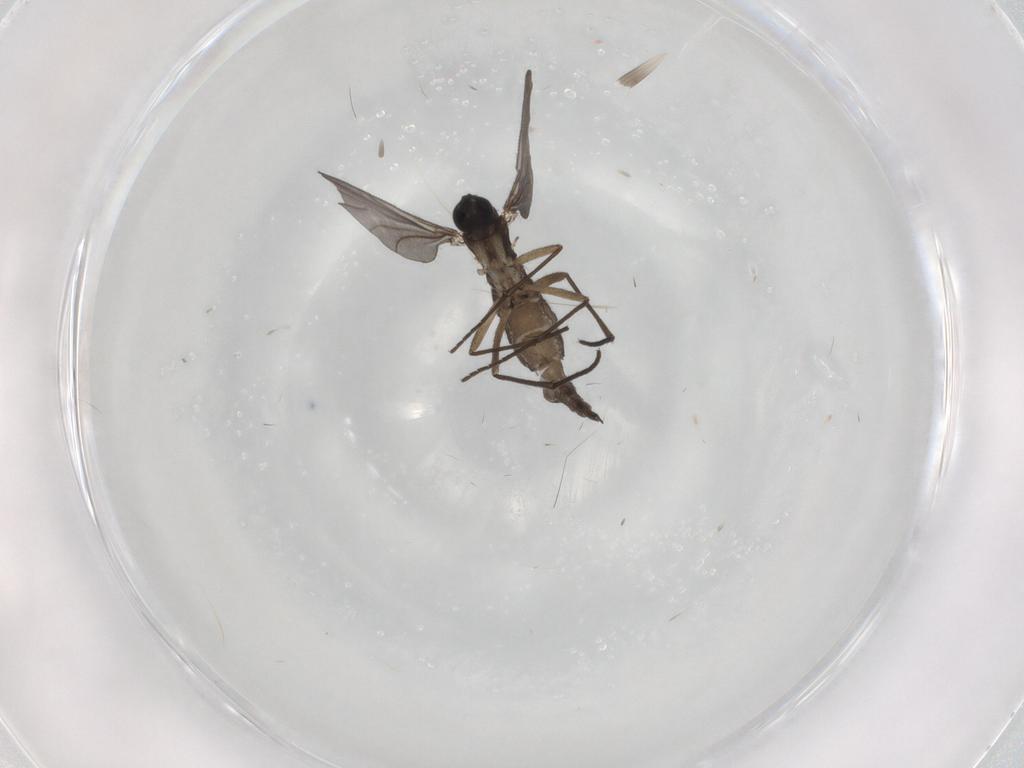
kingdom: Animalia
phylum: Arthropoda
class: Insecta
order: Diptera
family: Sciaridae
